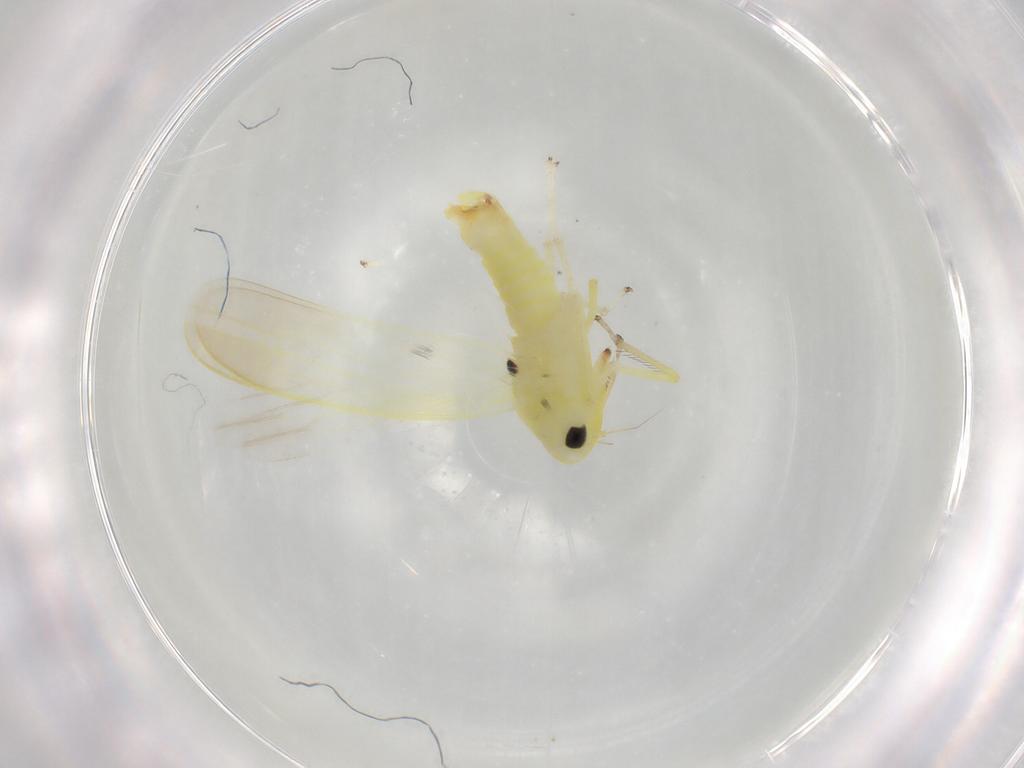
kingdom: Animalia
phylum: Arthropoda
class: Insecta
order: Hemiptera
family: Cicadellidae
